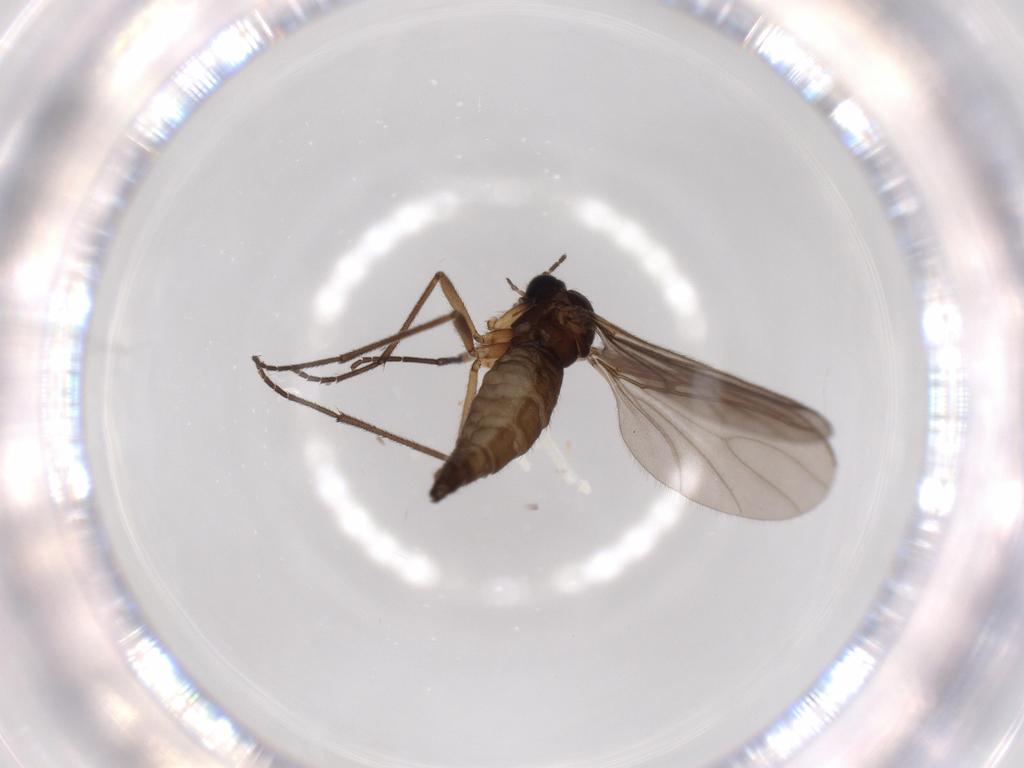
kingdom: Animalia
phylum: Arthropoda
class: Insecta
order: Diptera
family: Sciaridae
